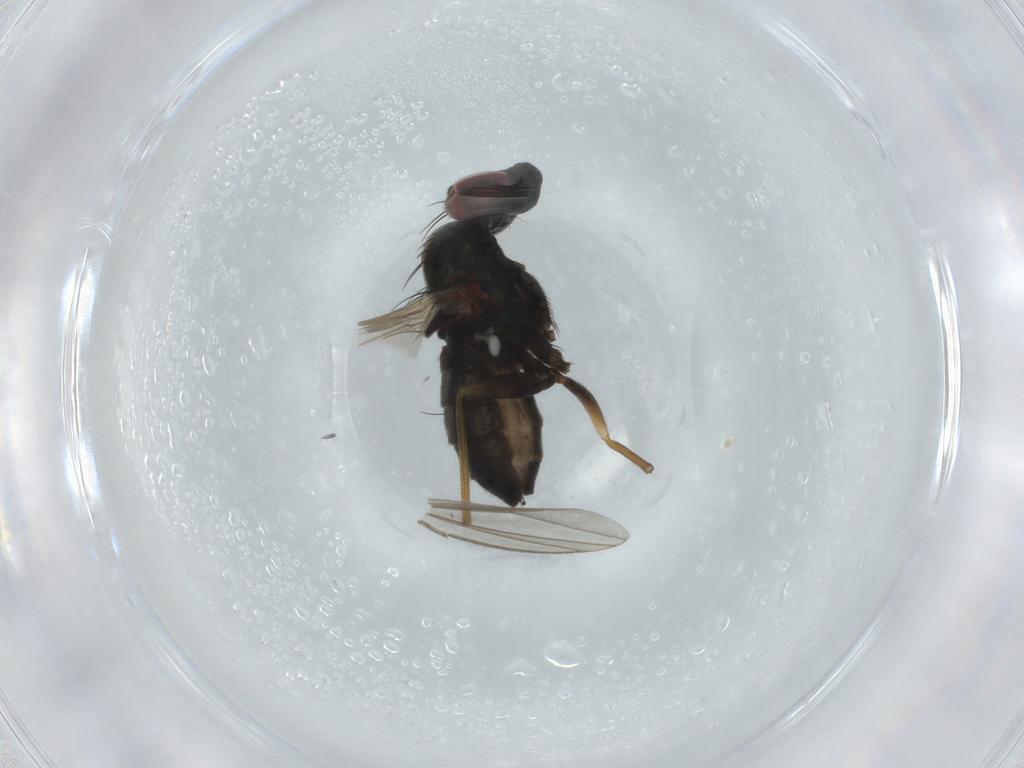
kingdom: Animalia
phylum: Arthropoda
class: Insecta
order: Diptera
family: Dolichopodidae
